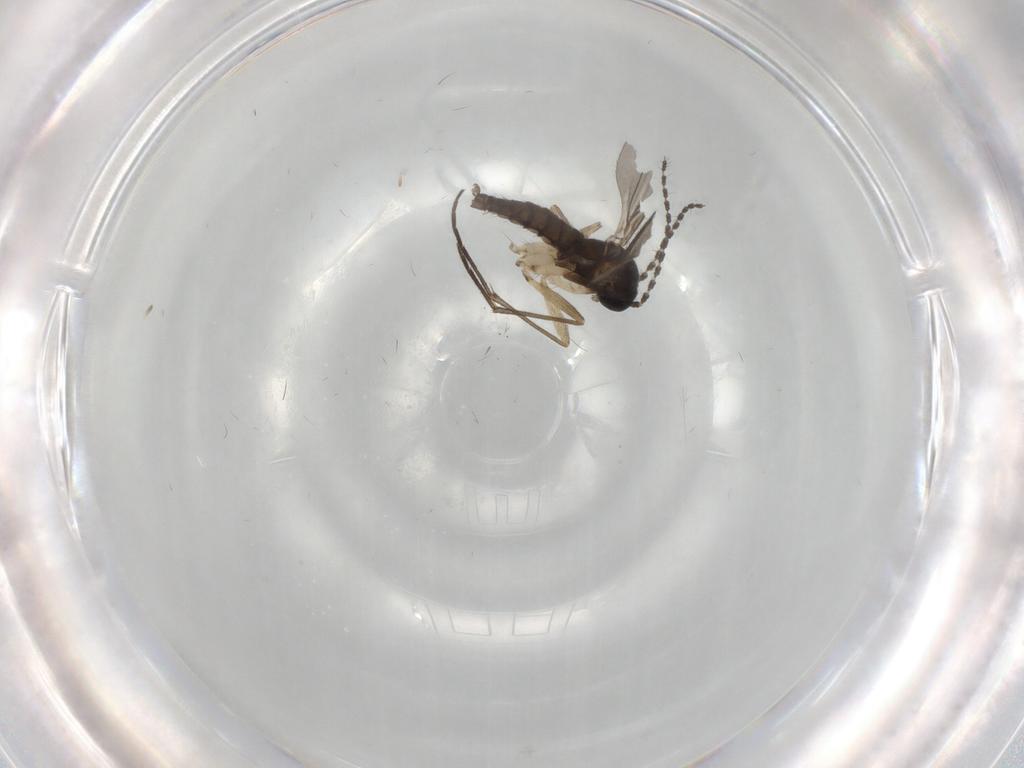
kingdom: Animalia
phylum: Arthropoda
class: Insecta
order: Diptera
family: Sciaridae
